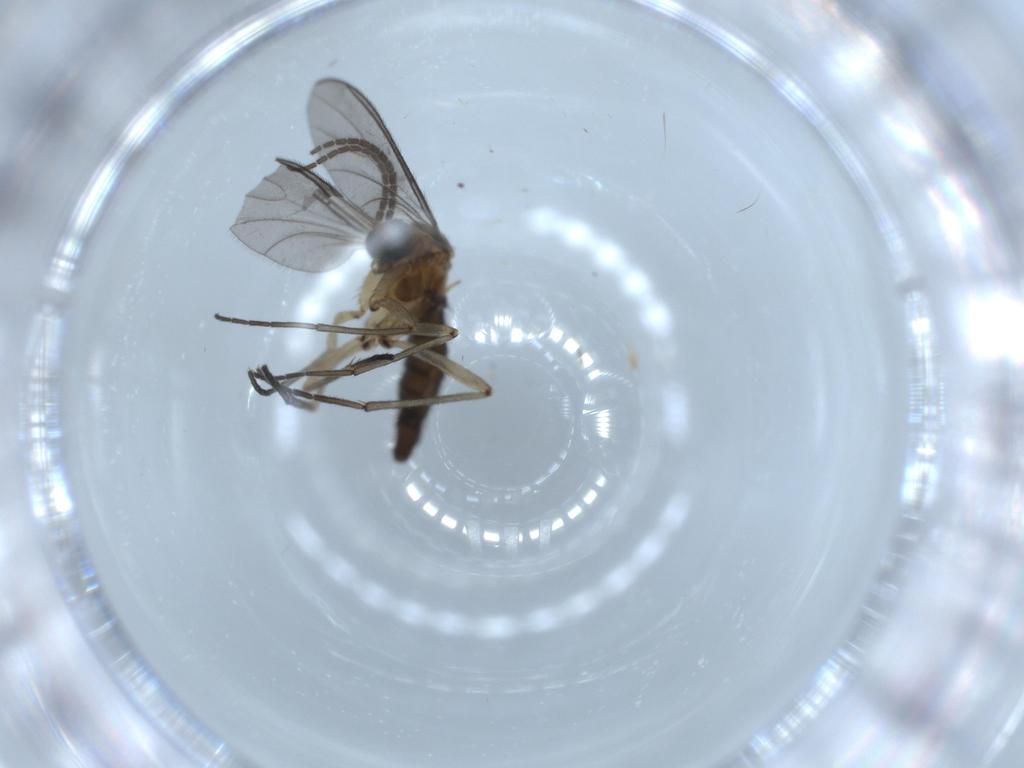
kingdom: Animalia
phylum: Arthropoda
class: Insecta
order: Diptera
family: Sciaridae
